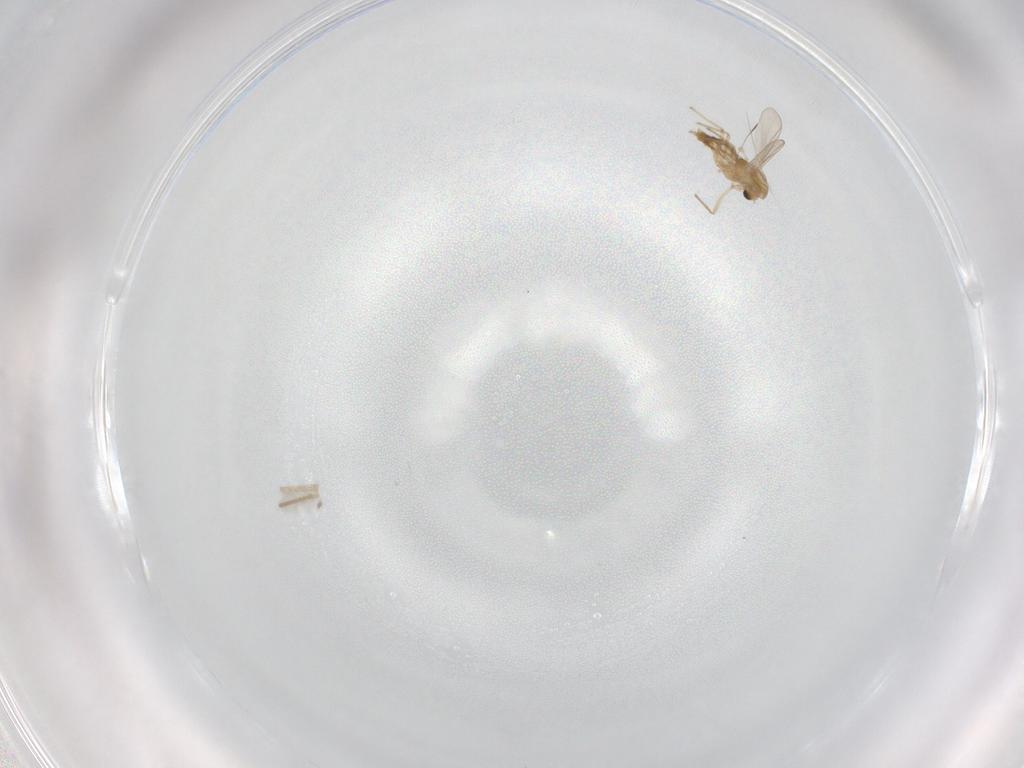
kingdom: Animalia
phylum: Arthropoda
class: Insecta
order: Diptera
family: Chironomidae
